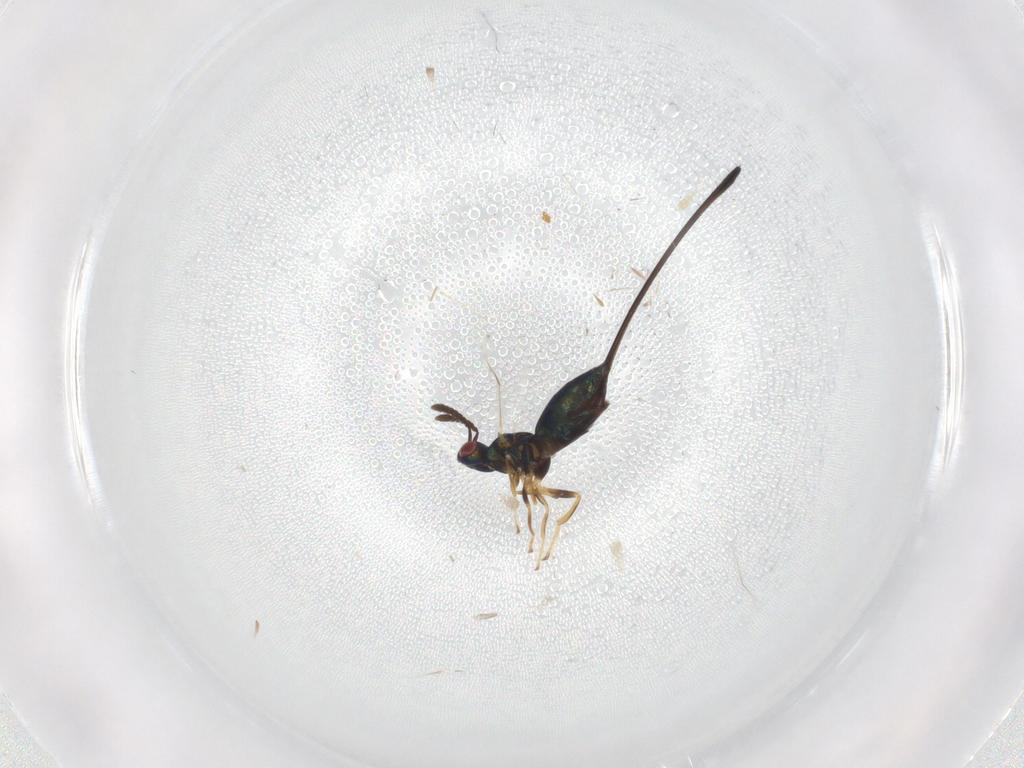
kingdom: Animalia
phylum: Arthropoda
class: Insecta
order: Hymenoptera
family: Pteromalidae
